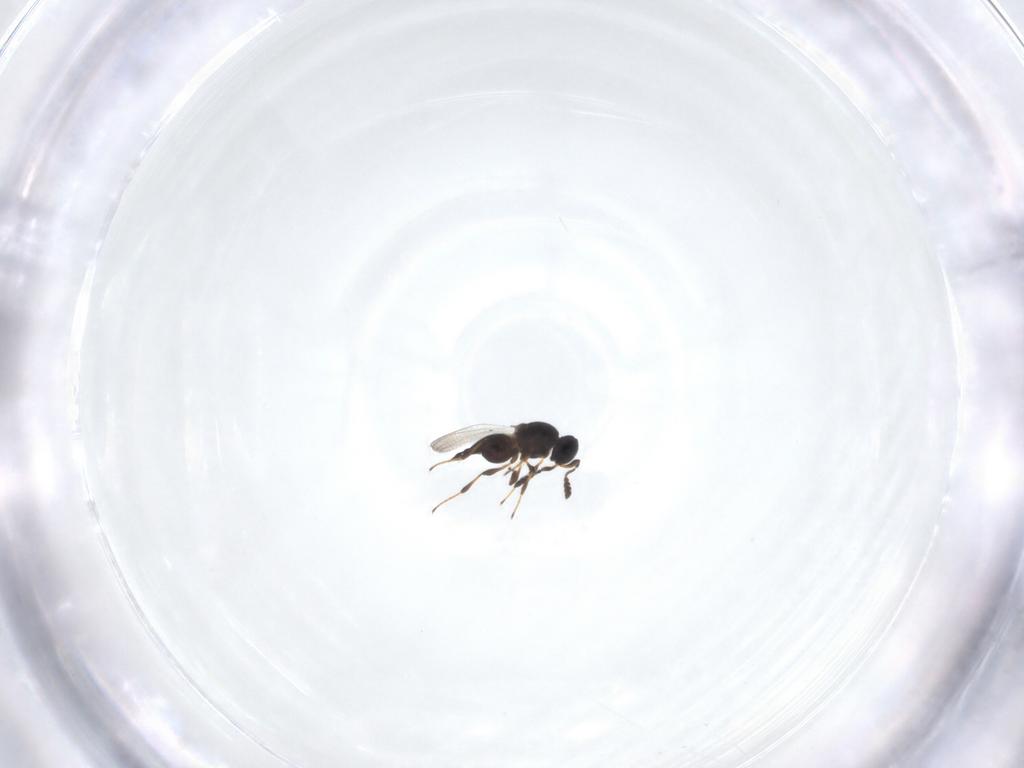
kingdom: Animalia
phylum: Arthropoda
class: Insecta
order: Hymenoptera
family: Platygastridae
